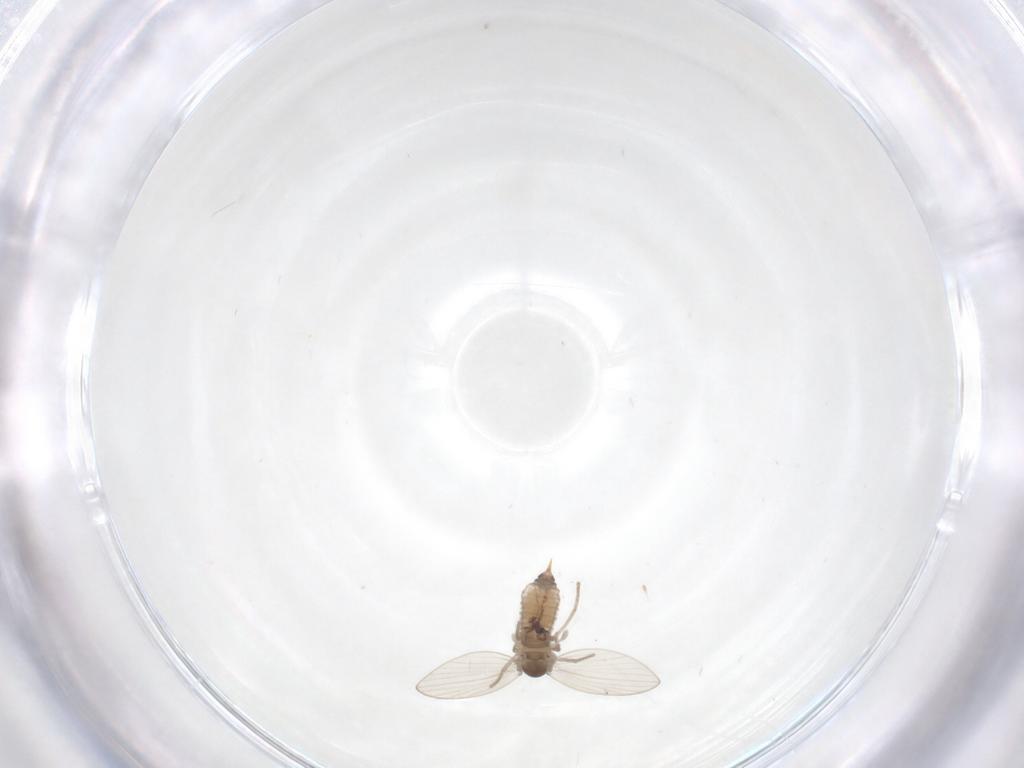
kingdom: Animalia
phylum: Arthropoda
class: Insecta
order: Diptera
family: Psychodidae
